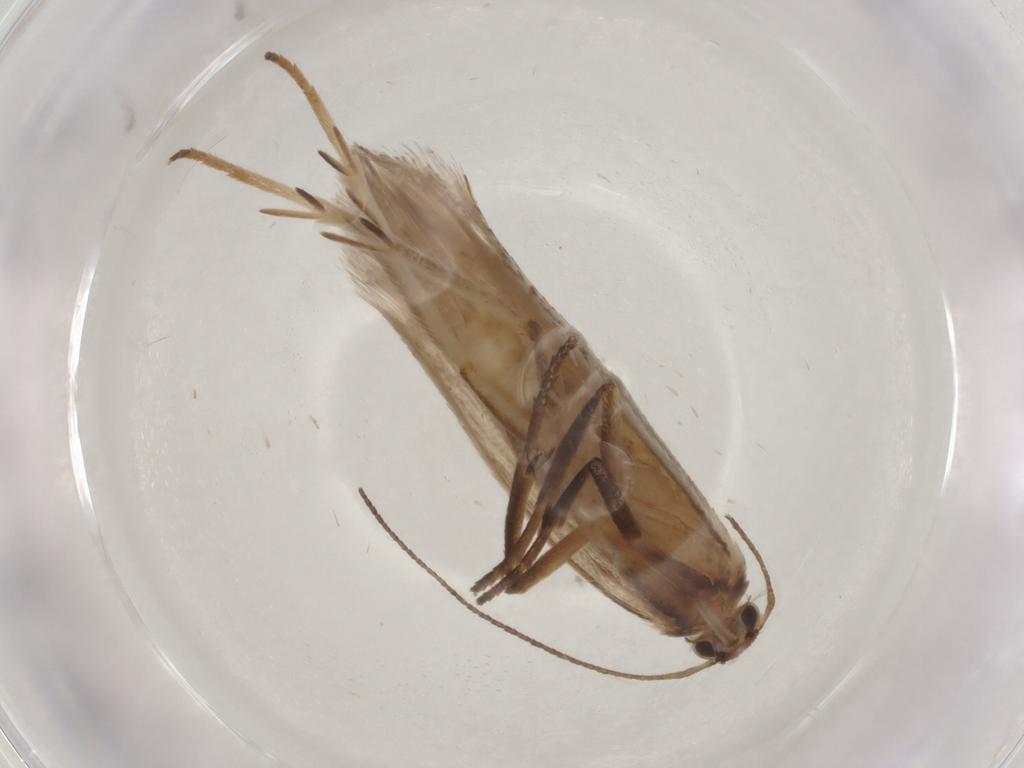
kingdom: Animalia
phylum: Arthropoda
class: Insecta
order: Lepidoptera
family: Gelechiidae
